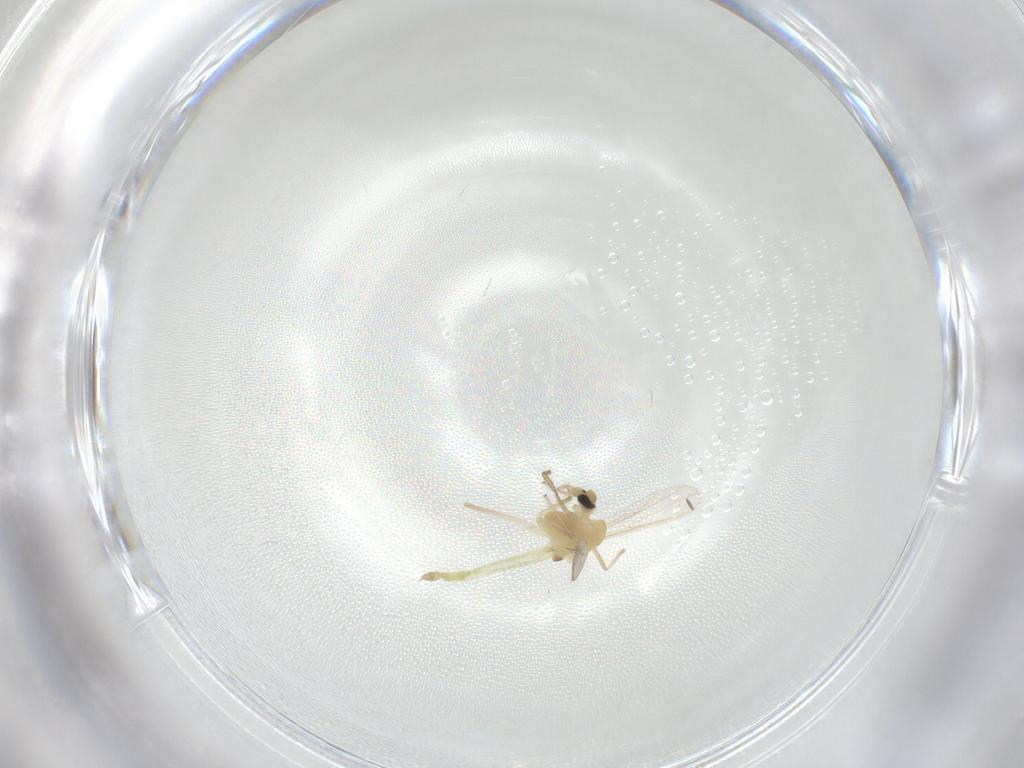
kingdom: Animalia
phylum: Arthropoda
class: Insecta
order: Diptera
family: Chironomidae
